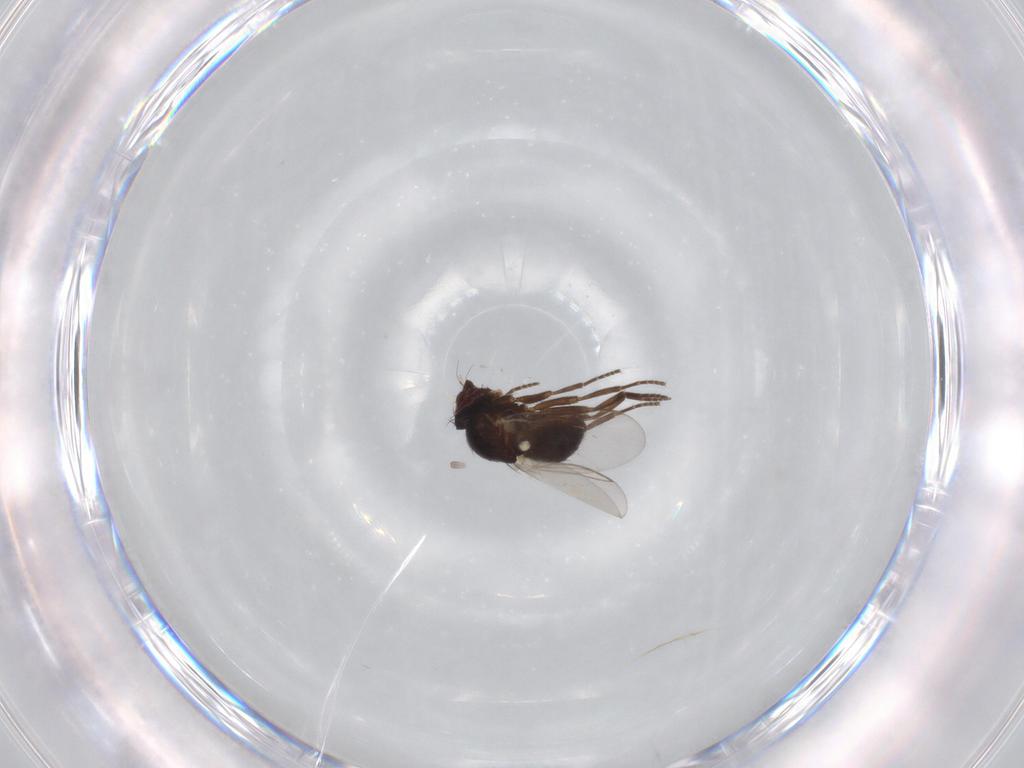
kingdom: Animalia
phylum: Arthropoda
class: Insecta
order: Diptera
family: Agromyzidae
